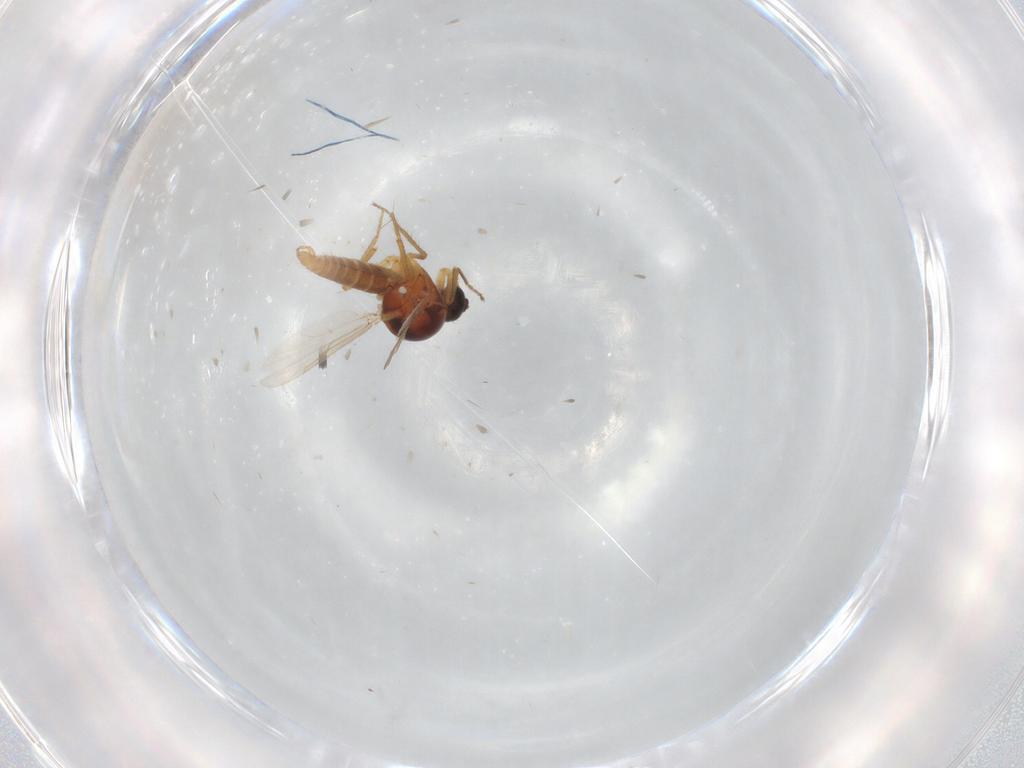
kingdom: Animalia
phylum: Arthropoda
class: Insecta
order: Diptera
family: Ceratopogonidae
